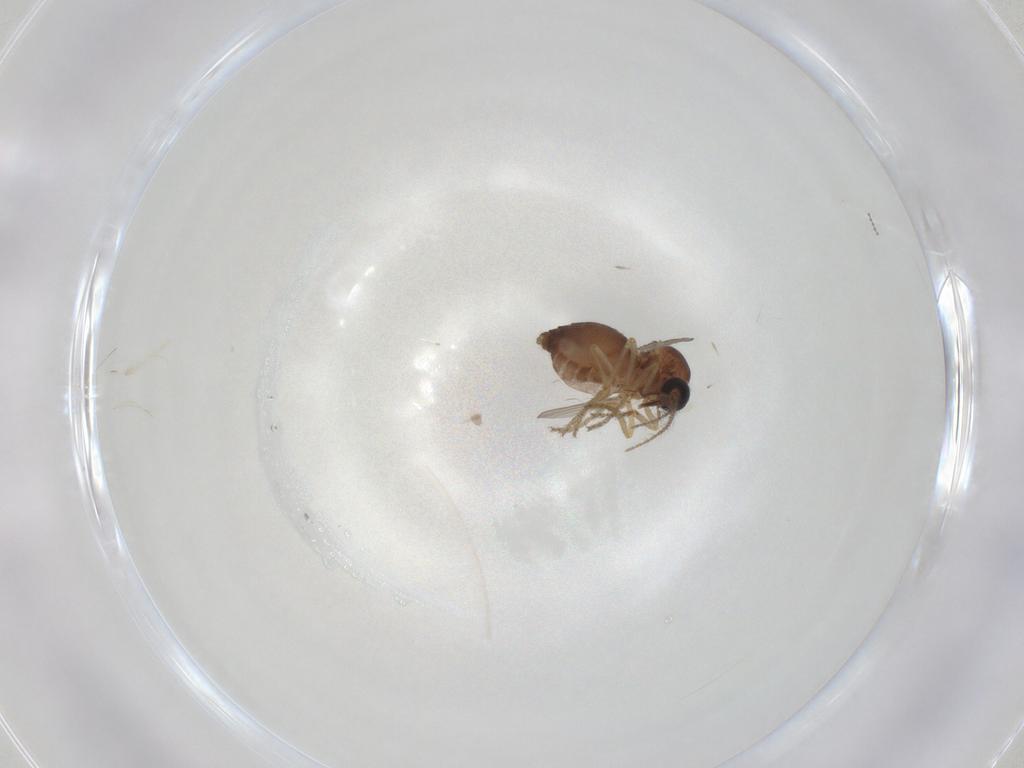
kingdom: Animalia
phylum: Arthropoda
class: Insecta
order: Diptera
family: Ceratopogonidae
